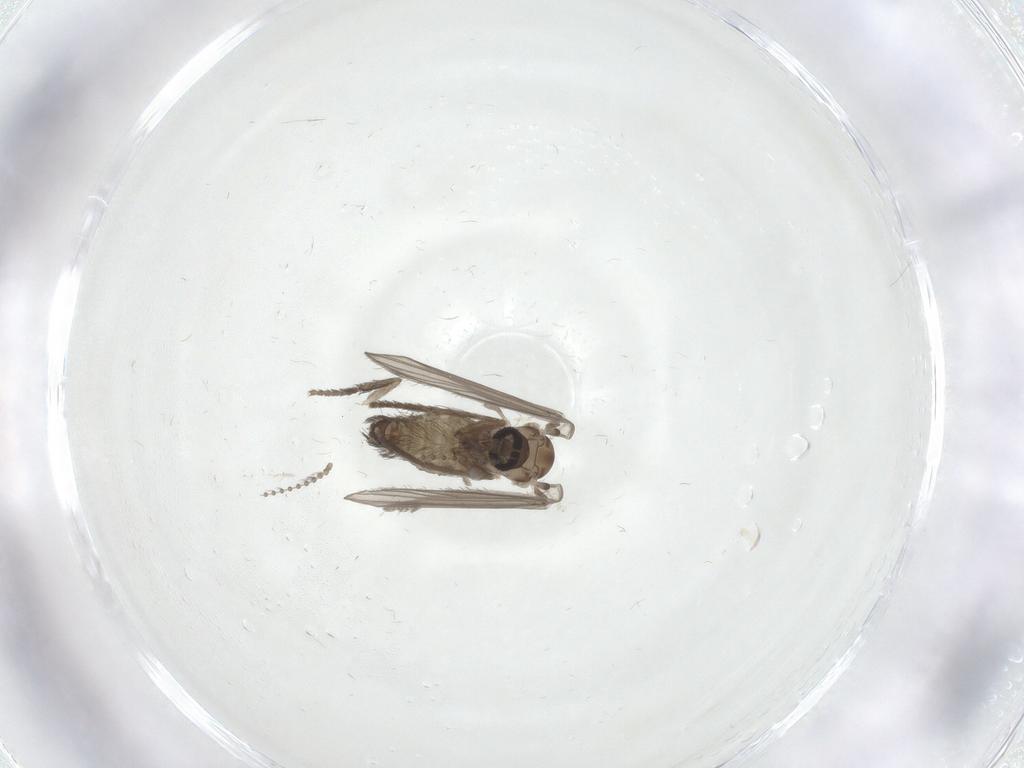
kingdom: Animalia
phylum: Arthropoda
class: Insecta
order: Diptera
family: Psychodidae
